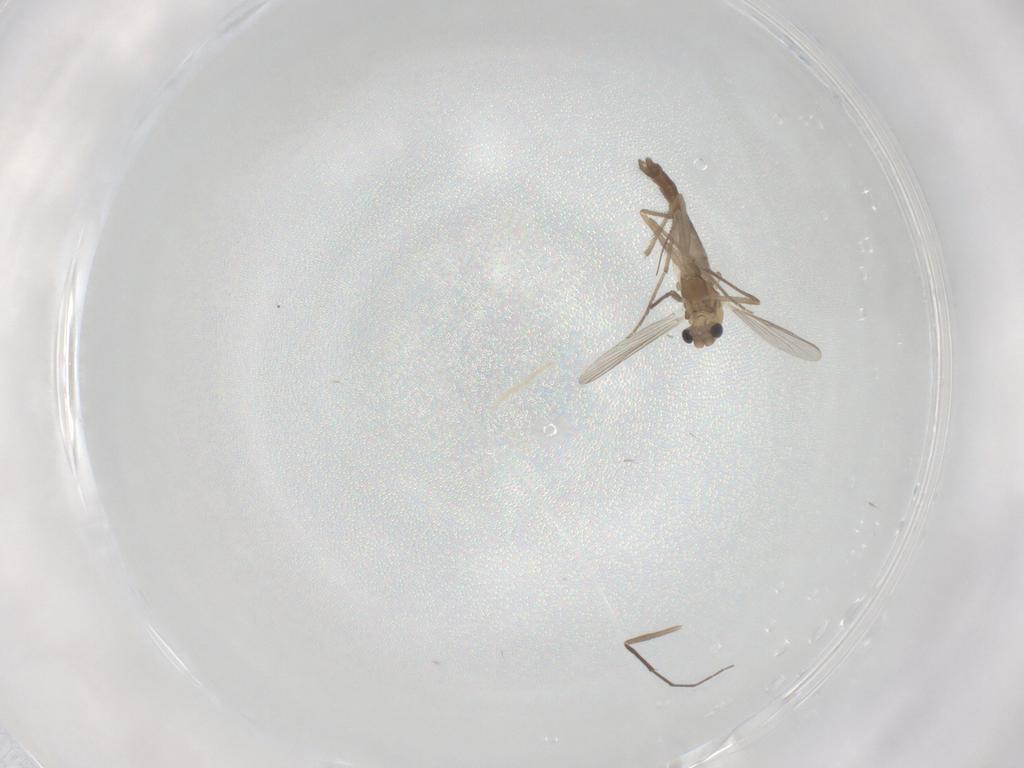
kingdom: Animalia
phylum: Arthropoda
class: Insecta
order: Diptera
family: Chironomidae
